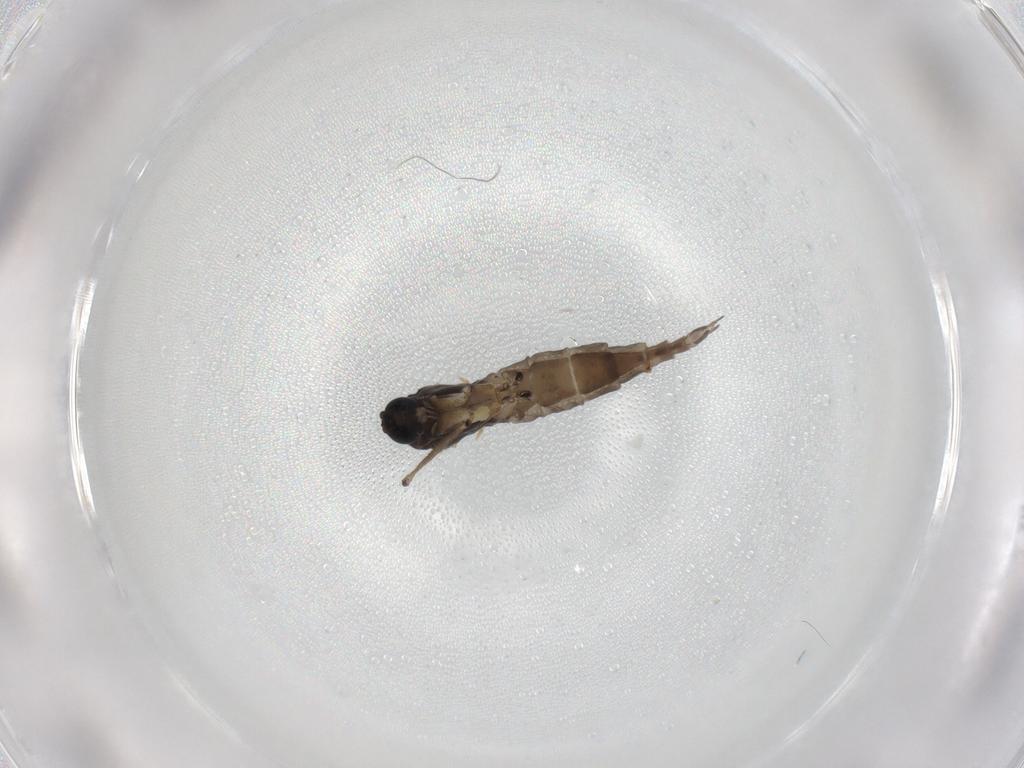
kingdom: Animalia
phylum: Arthropoda
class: Insecta
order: Diptera
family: Sciaridae
